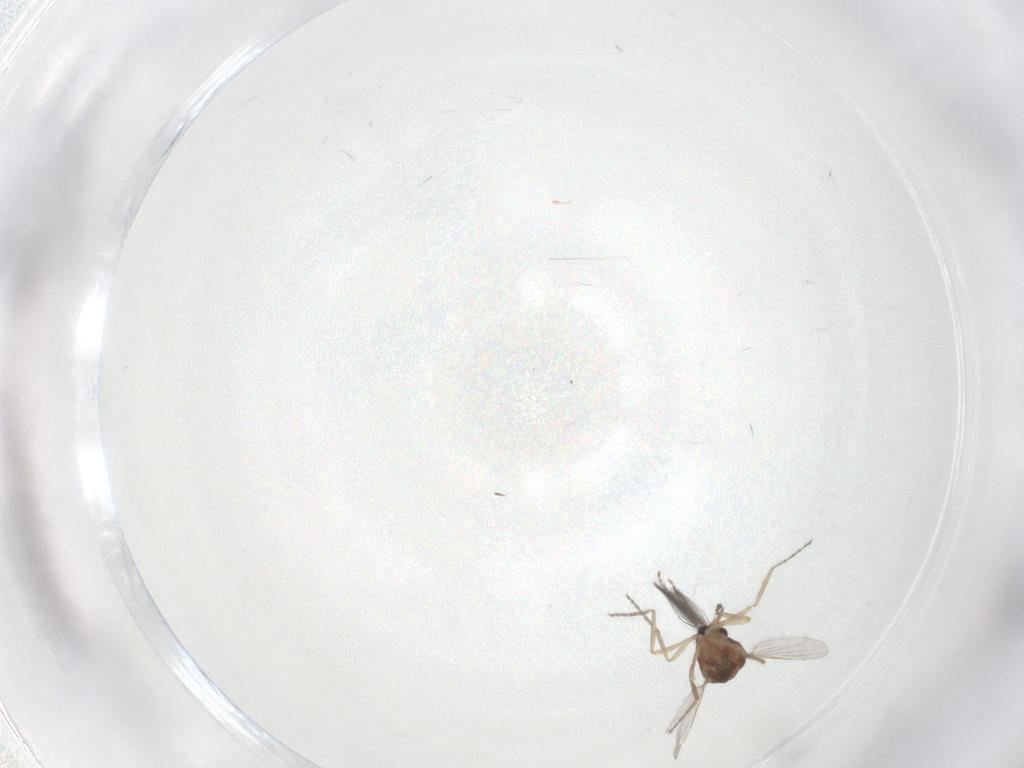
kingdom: Animalia
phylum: Arthropoda
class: Insecta
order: Diptera
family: Ceratopogonidae
